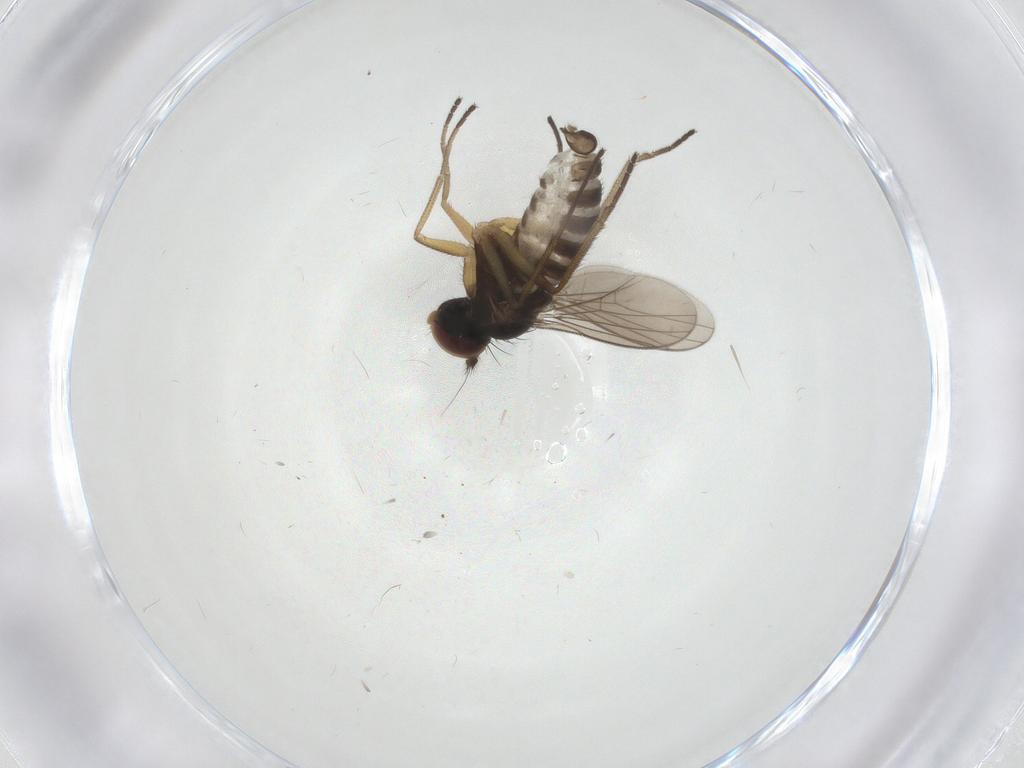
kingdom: Animalia
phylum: Arthropoda
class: Insecta
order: Diptera
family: Dolichopodidae
